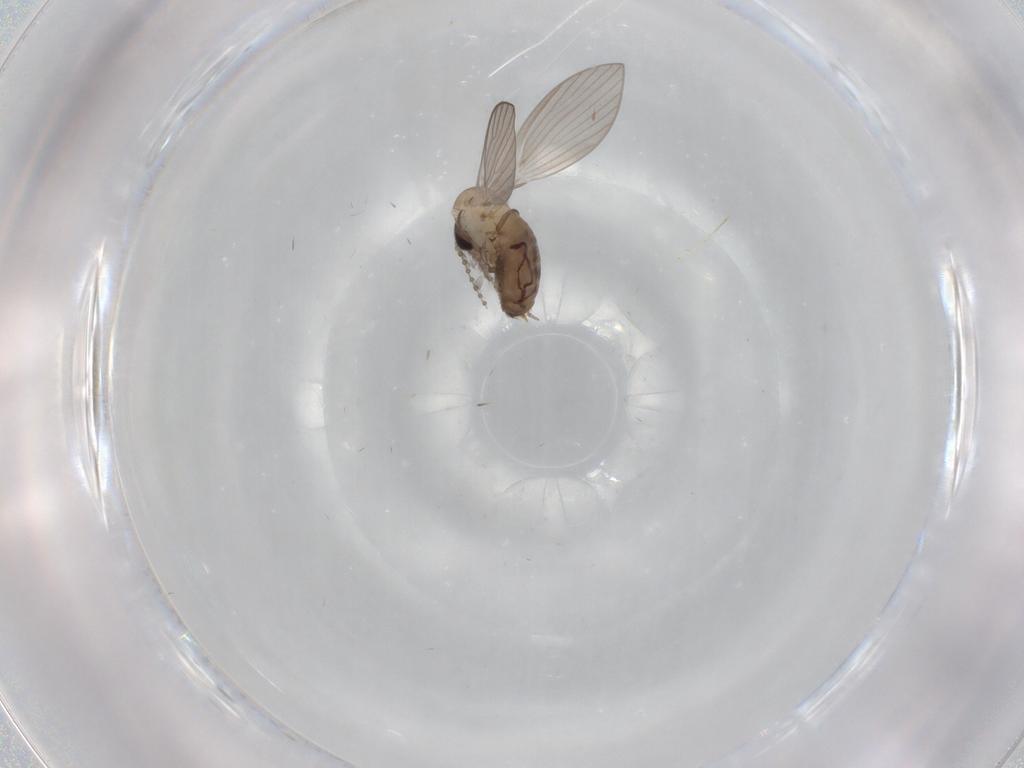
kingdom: Animalia
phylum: Arthropoda
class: Insecta
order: Diptera
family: Psychodidae
